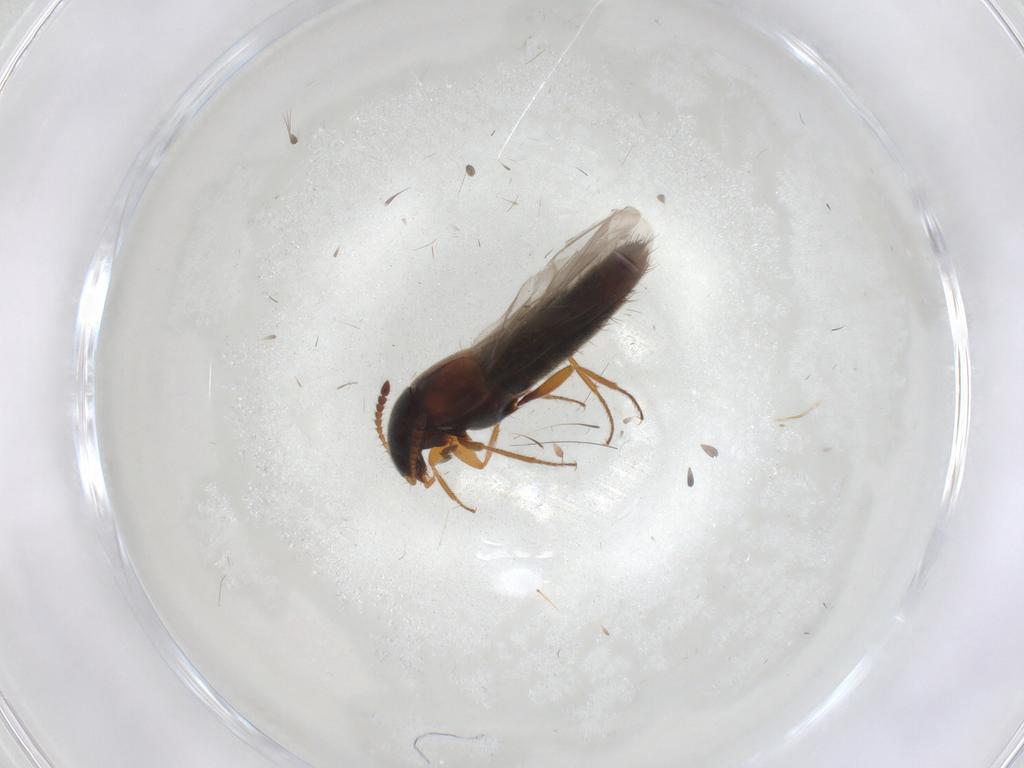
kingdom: Animalia
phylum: Arthropoda
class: Insecta
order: Coleoptera
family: Staphylinidae
